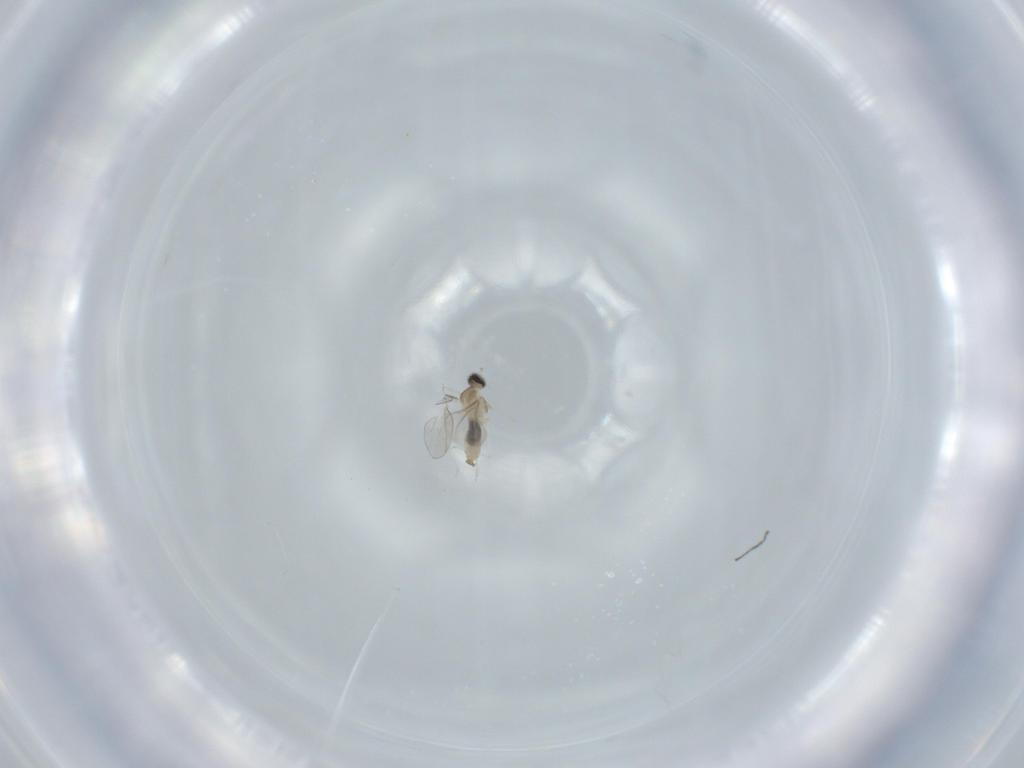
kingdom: Animalia
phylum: Arthropoda
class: Insecta
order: Diptera
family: Cecidomyiidae
